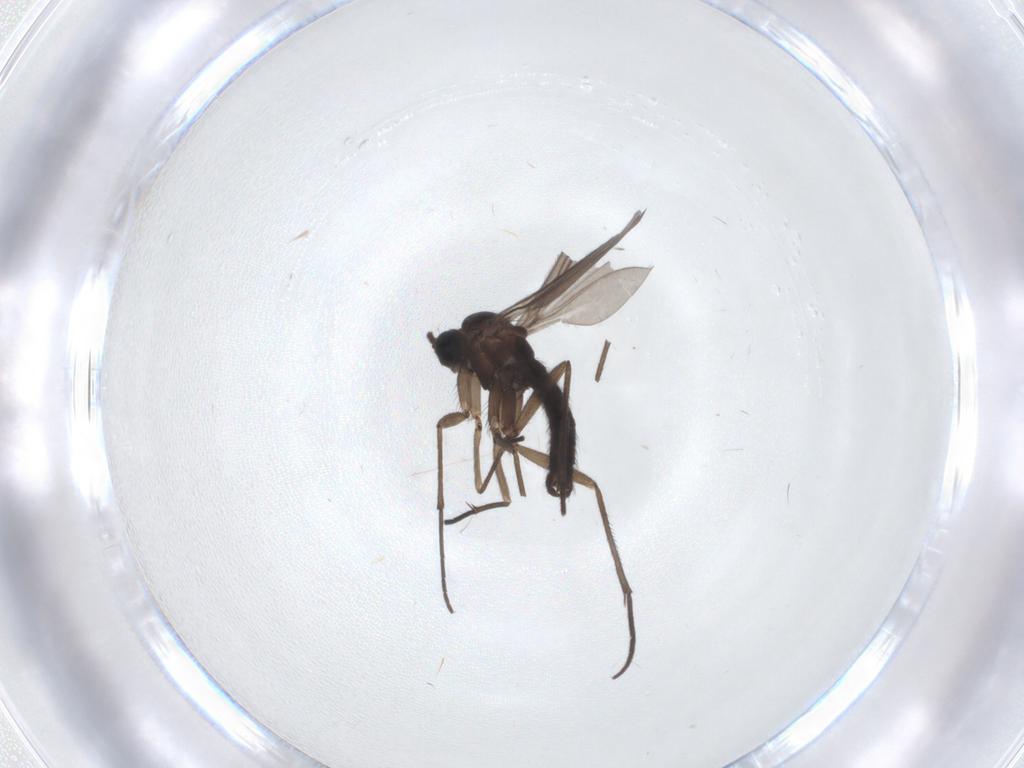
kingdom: Animalia
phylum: Arthropoda
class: Insecta
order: Diptera
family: Sciaridae
